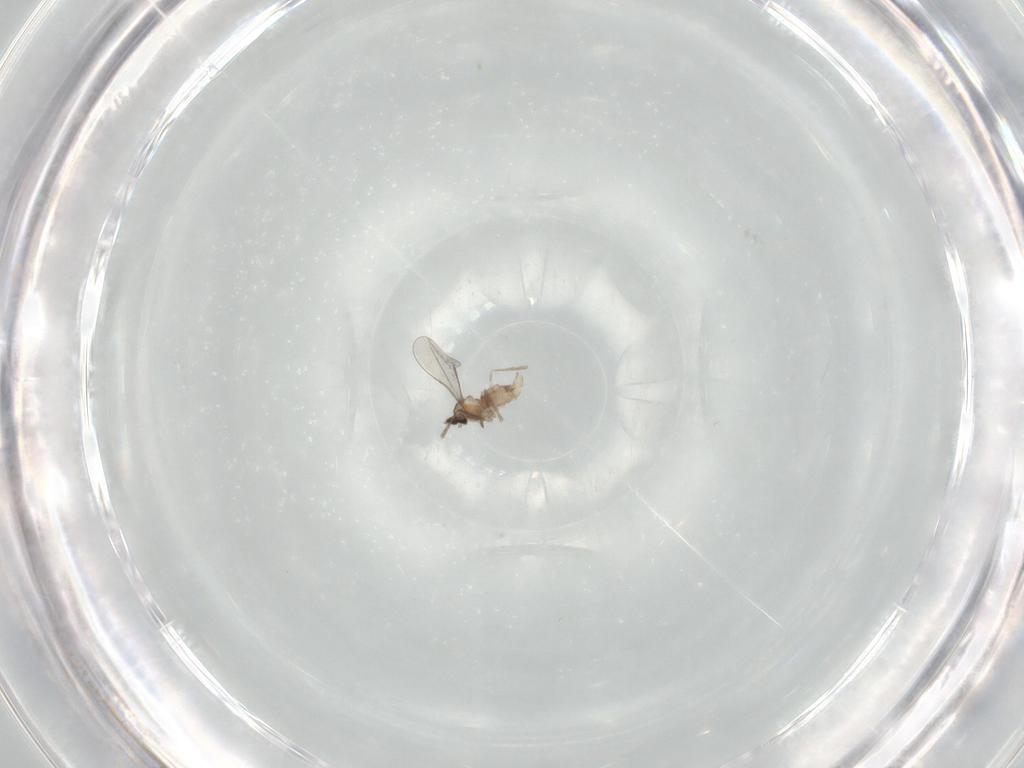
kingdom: Animalia
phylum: Arthropoda
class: Insecta
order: Diptera
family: Chironomidae
